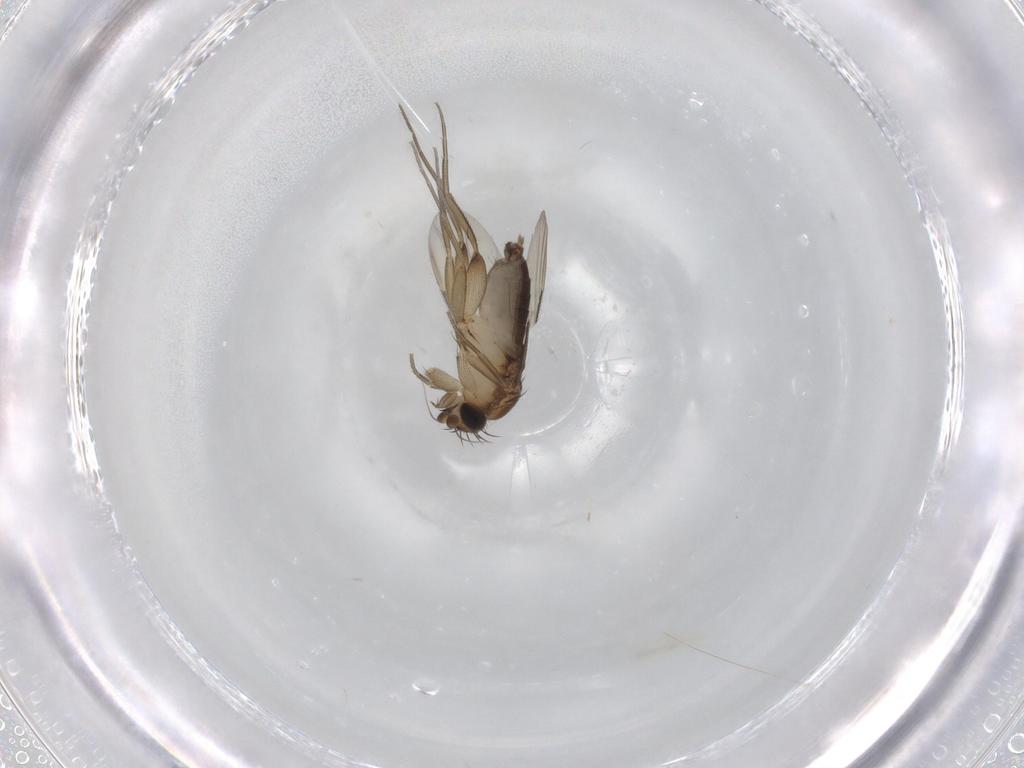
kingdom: Animalia
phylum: Arthropoda
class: Insecta
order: Diptera
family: Phoridae
